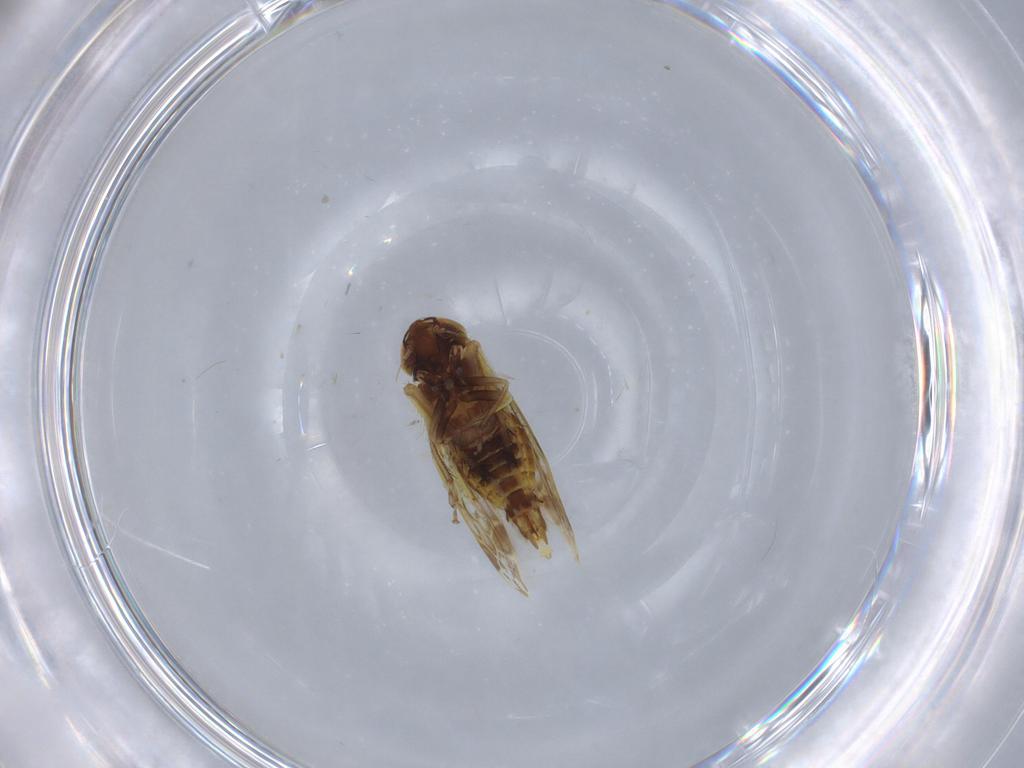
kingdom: Animalia
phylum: Arthropoda
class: Insecta
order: Hemiptera
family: Cicadellidae
